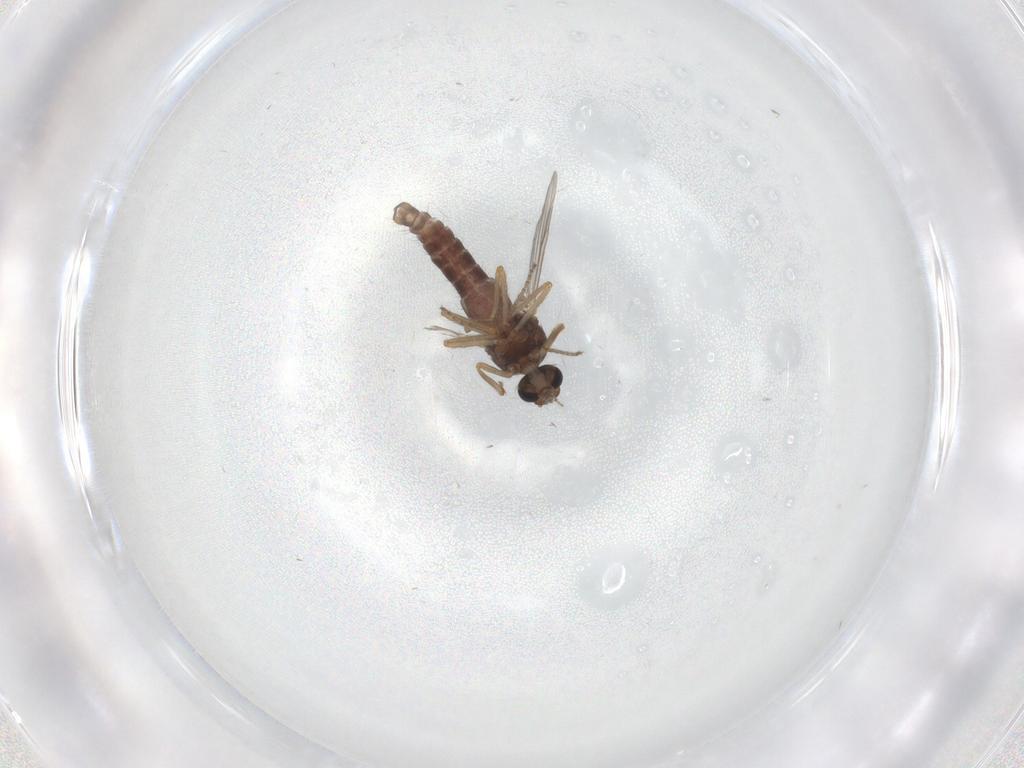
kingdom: Animalia
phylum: Arthropoda
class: Insecta
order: Diptera
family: Ceratopogonidae
